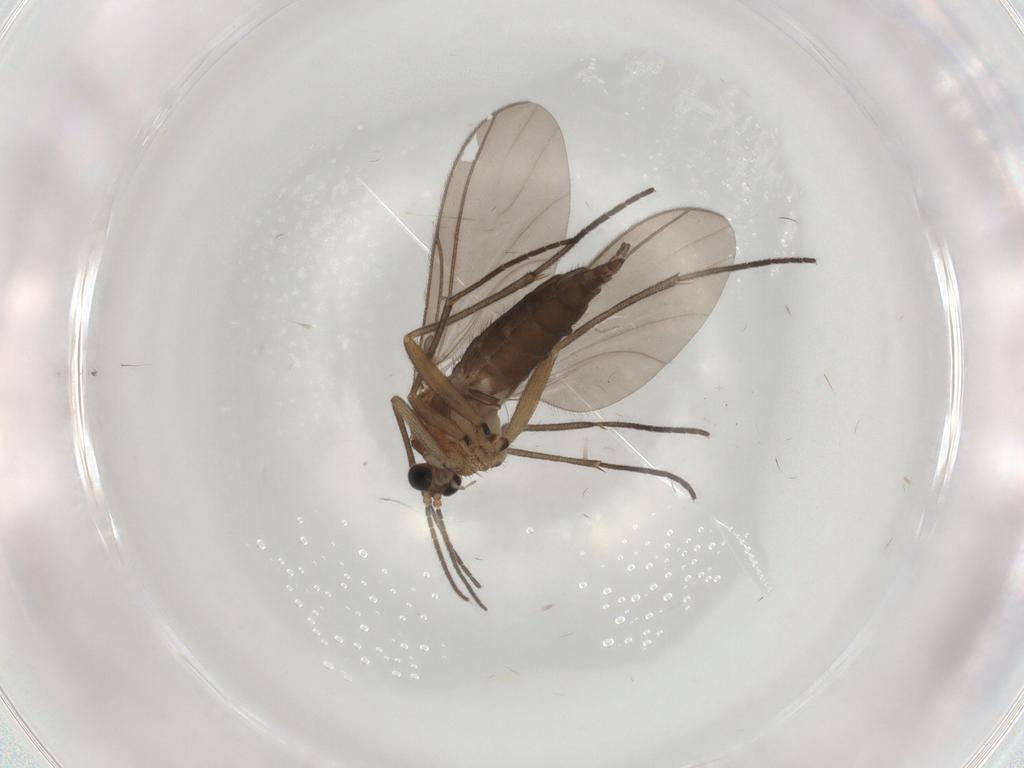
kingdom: Animalia
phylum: Arthropoda
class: Insecta
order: Diptera
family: Sciaridae
